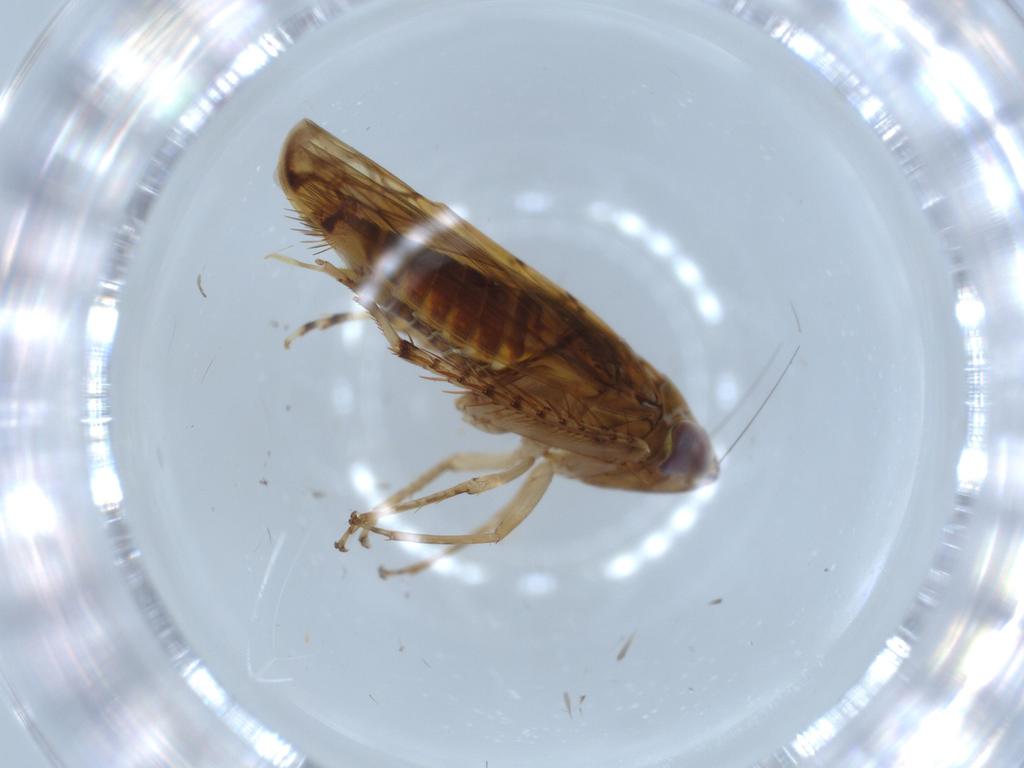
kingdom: Animalia
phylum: Arthropoda
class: Insecta
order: Hemiptera
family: Cicadellidae
